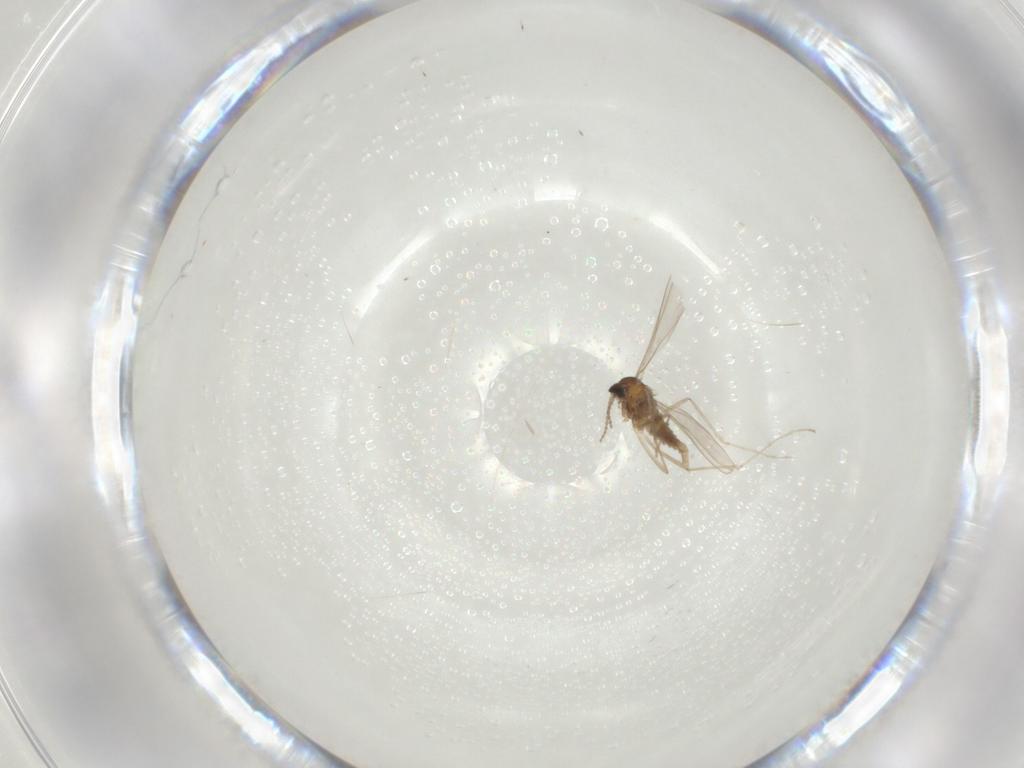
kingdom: Animalia
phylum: Arthropoda
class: Insecta
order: Diptera
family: Cecidomyiidae
